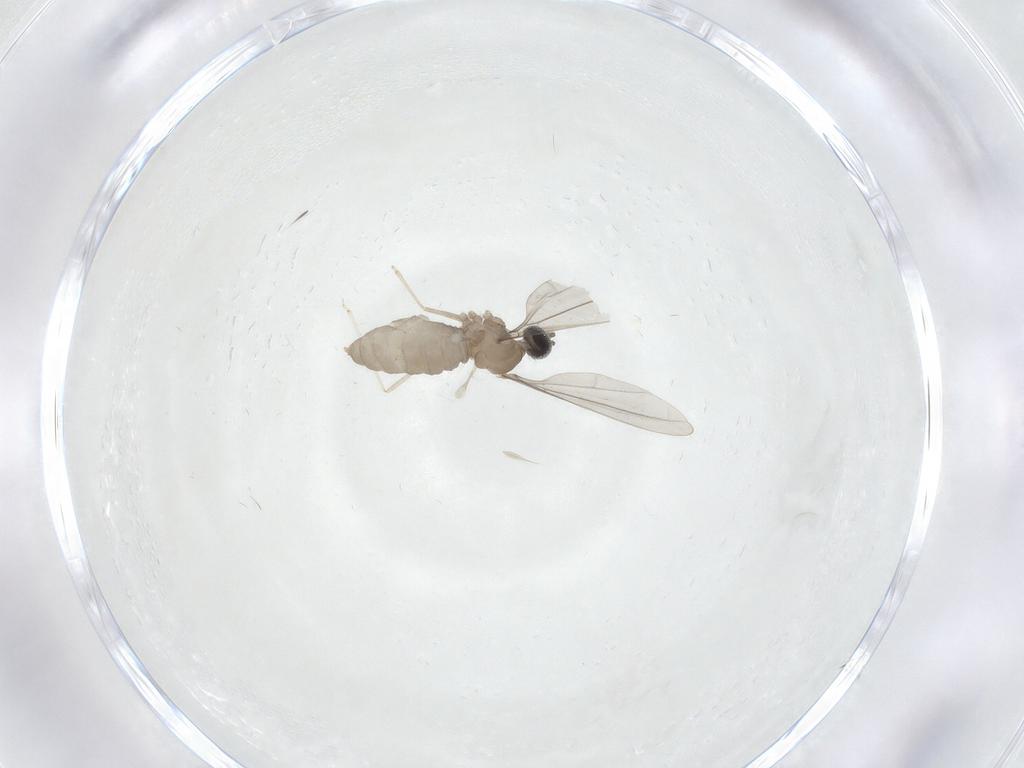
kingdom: Animalia
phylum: Arthropoda
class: Insecta
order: Diptera
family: Cecidomyiidae
